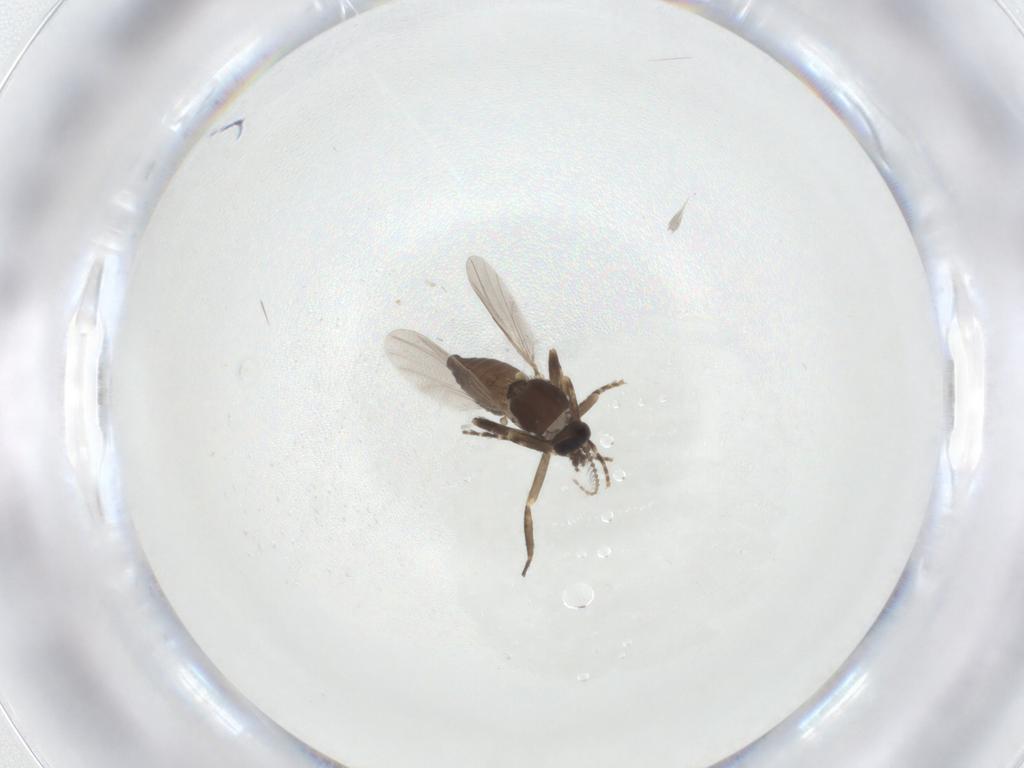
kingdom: Animalia
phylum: Arthropoda
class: Insecta
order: Diptera
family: Ceratopogonidae
